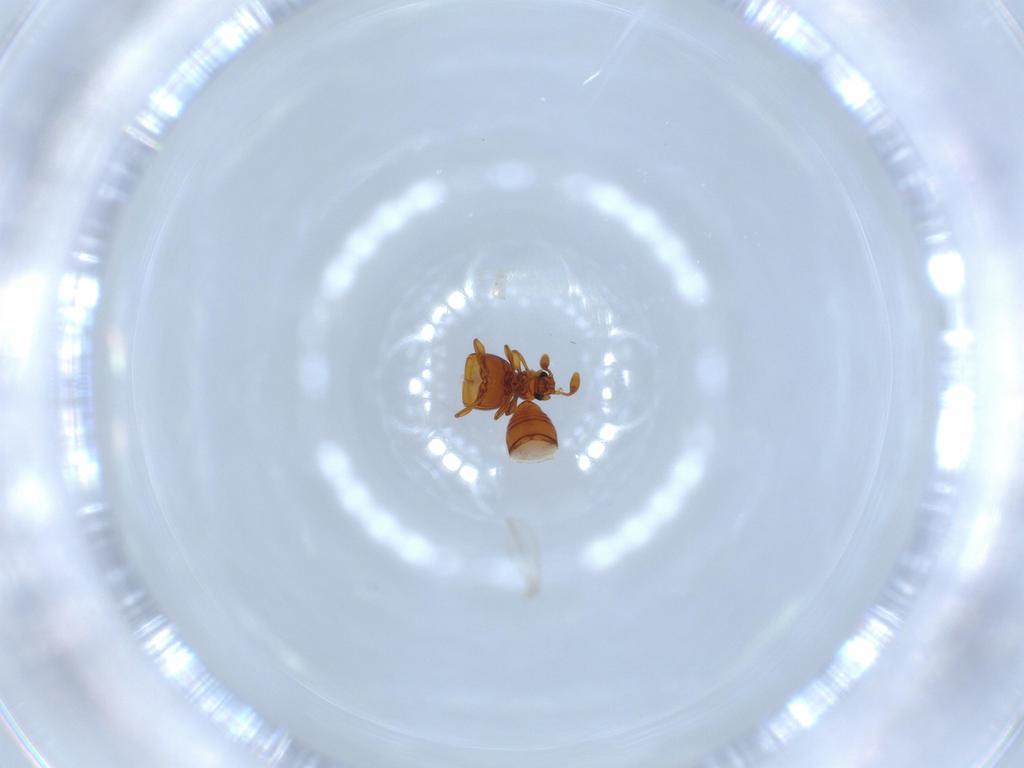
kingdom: Animalia
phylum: Arthropoda
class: Insecta
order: Coleoptera
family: Staphylinidae
